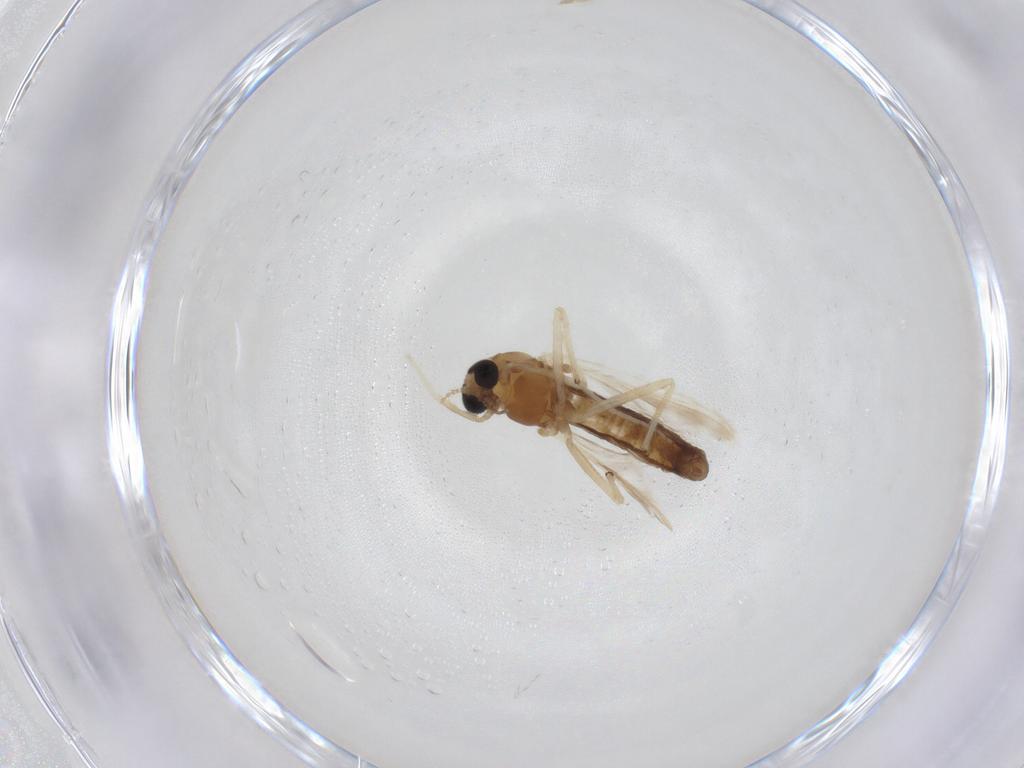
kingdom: Animalia
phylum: Arthropoda
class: Insecta
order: Diptera
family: Chironomidae
